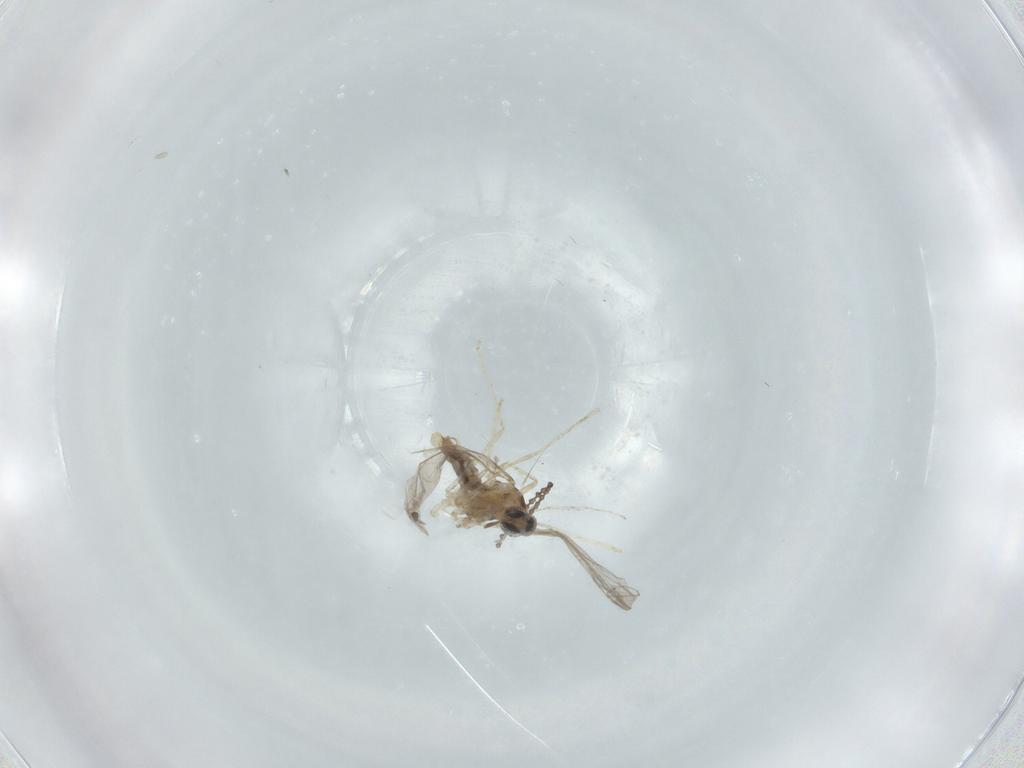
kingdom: Animalia
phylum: Arthropoda
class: Insecta
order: Diptera
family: Cecidomyiidae
